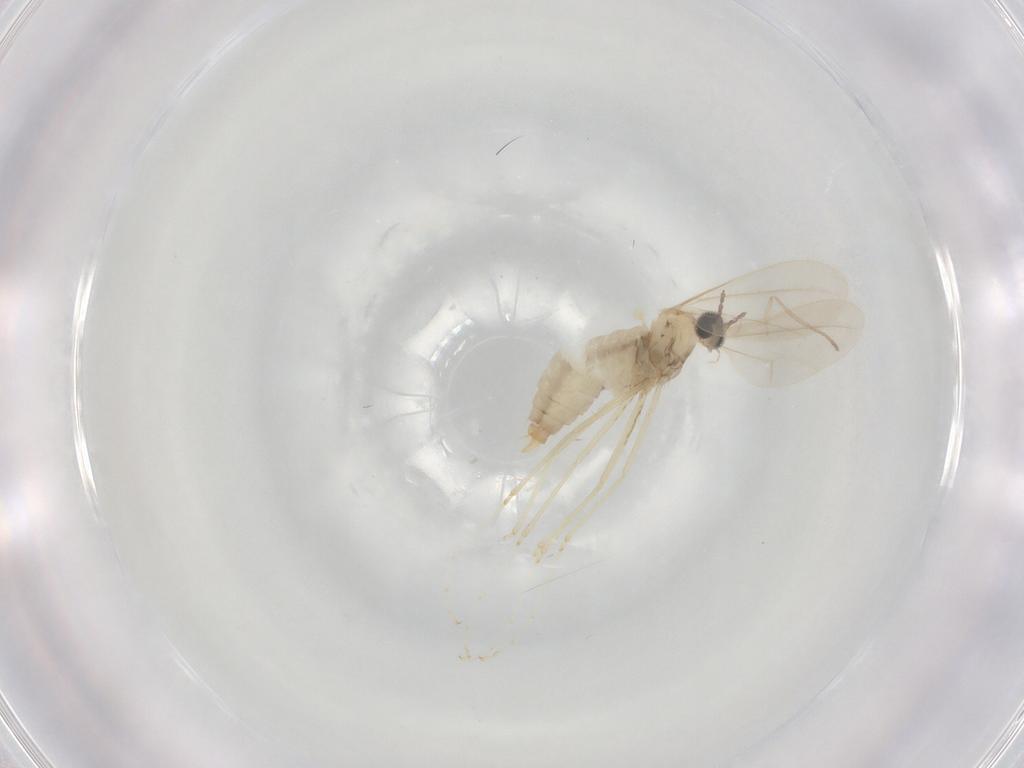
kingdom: Animalia
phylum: Arthropoda
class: Insecta
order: Diptera
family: Cecidomyiidae
